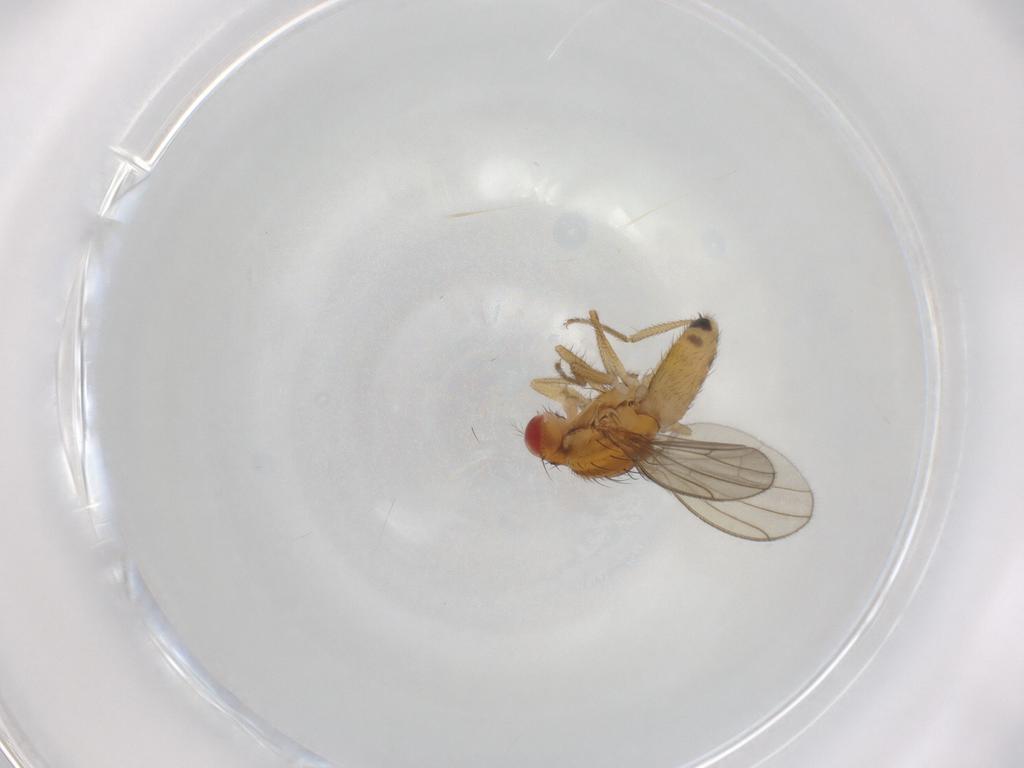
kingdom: Animalia
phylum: Arthropoda
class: Insecta
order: Diptera
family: Drosophilidae
